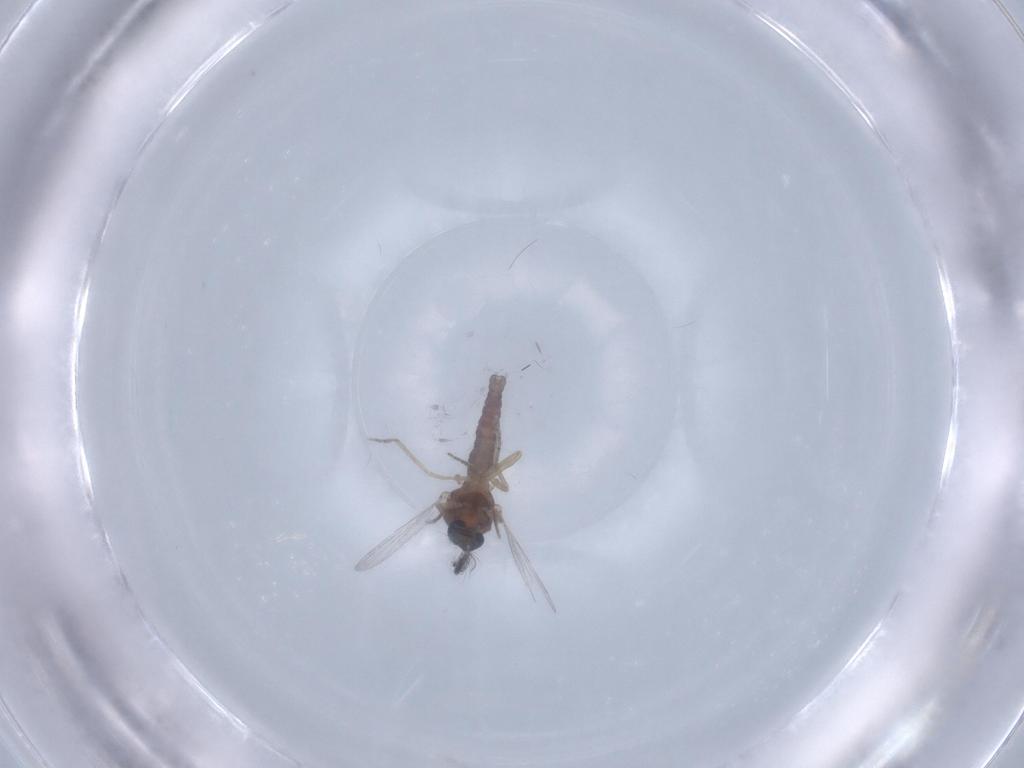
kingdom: Animalia
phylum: Arthropoda
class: Insecta
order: Diptera
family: Ceratopogonidae
